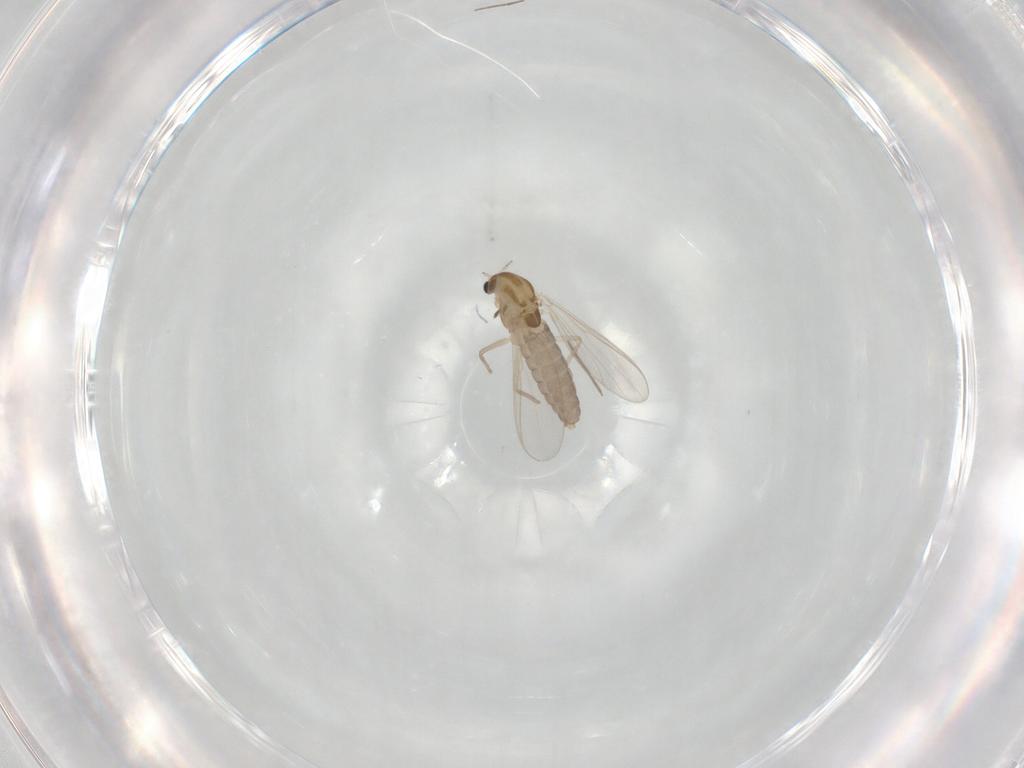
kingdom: Animalia
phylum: Arthropoda
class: Insecta
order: Diptera
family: Chironomidae
